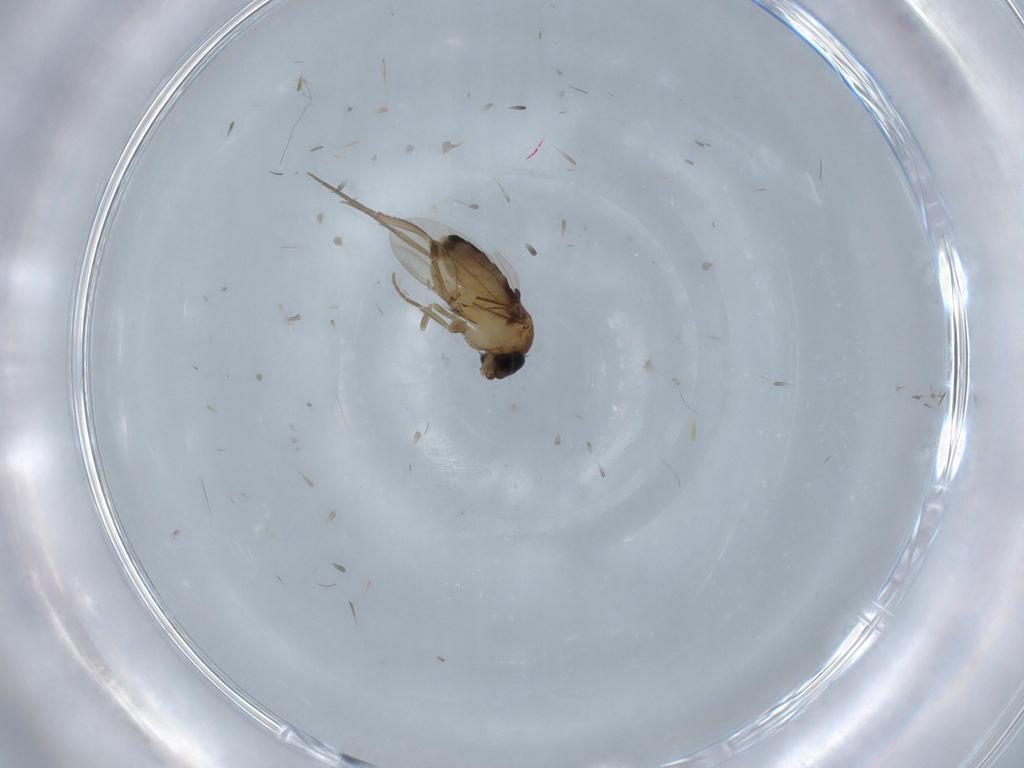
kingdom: Animalia
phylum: Arthropoda
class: Insecta
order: Diptera
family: Phoridae
